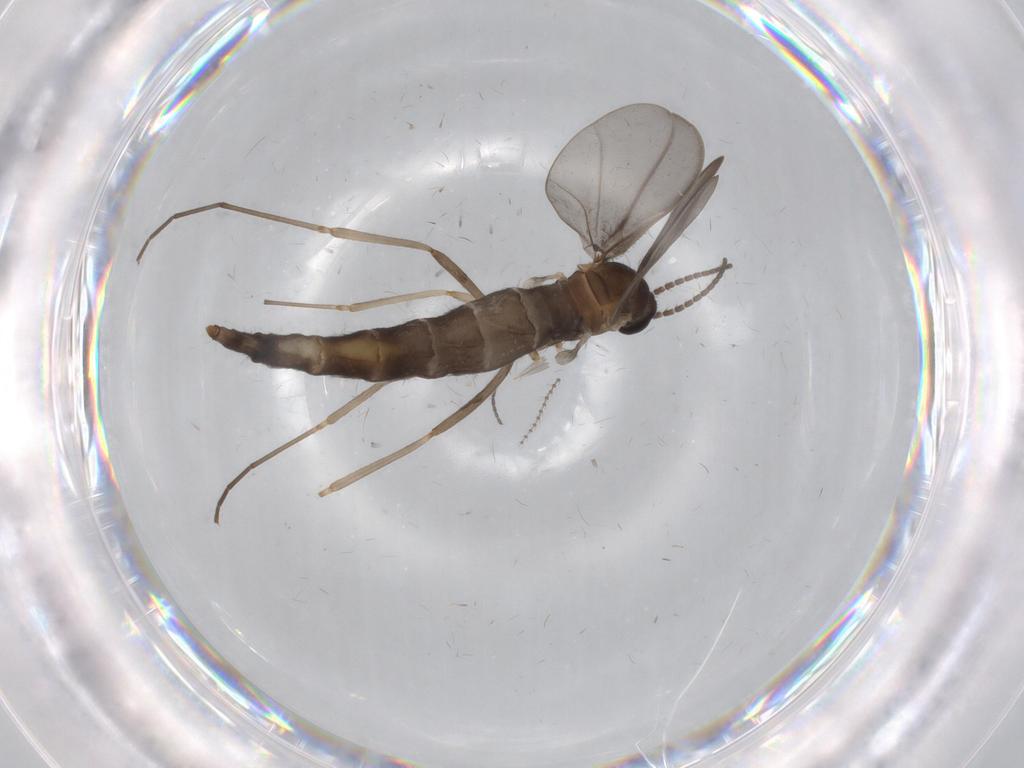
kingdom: Animalia
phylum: Arthropoda
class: Insecta
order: Diptera
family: Cecidomyiidae
